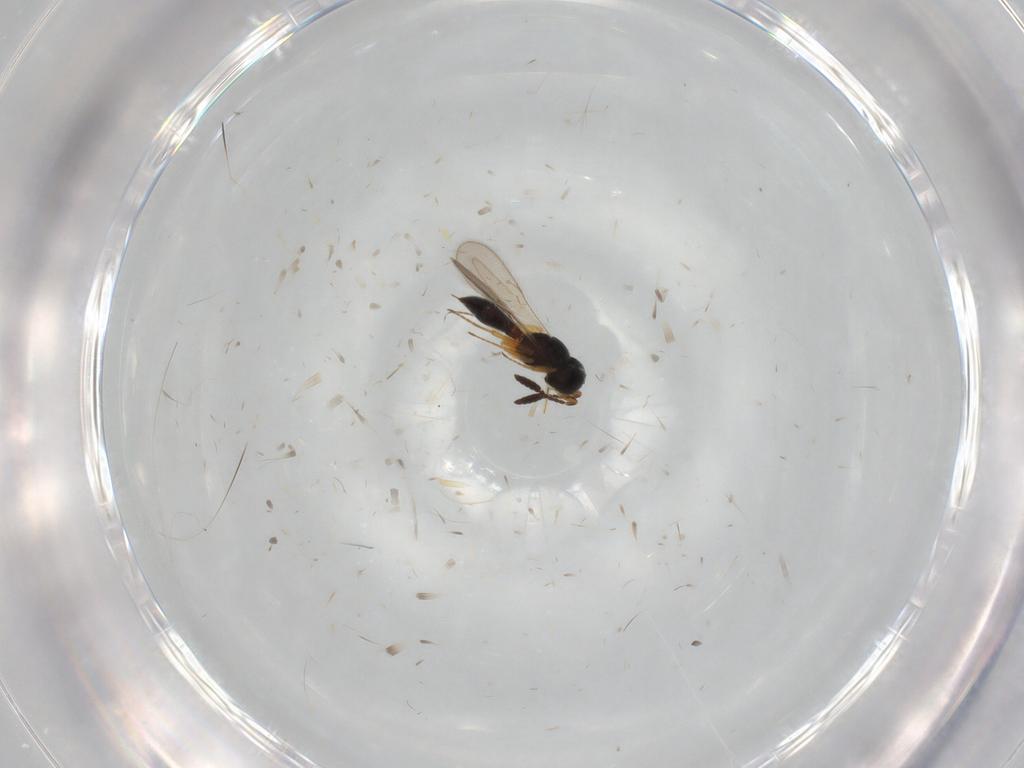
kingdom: Animalia
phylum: Arthropoda
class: Insecta
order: Hymenoptera
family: Scelionidae
